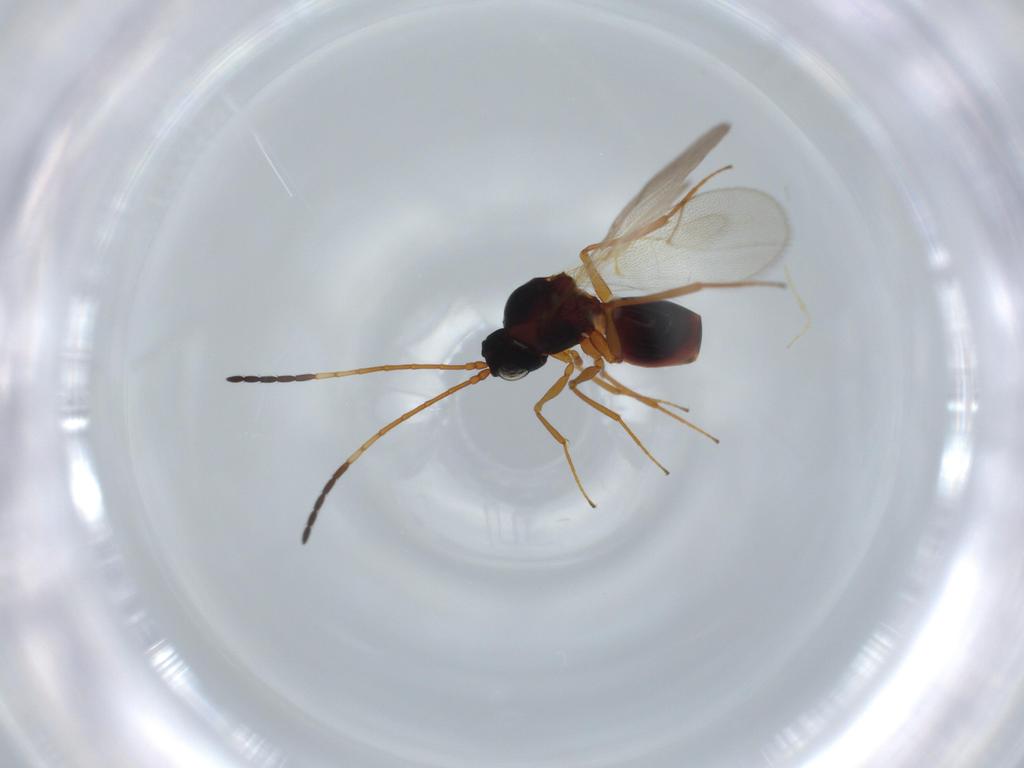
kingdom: Animalia
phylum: Arthropoda
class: Insecta
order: Hymenoptera
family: Figitidae
